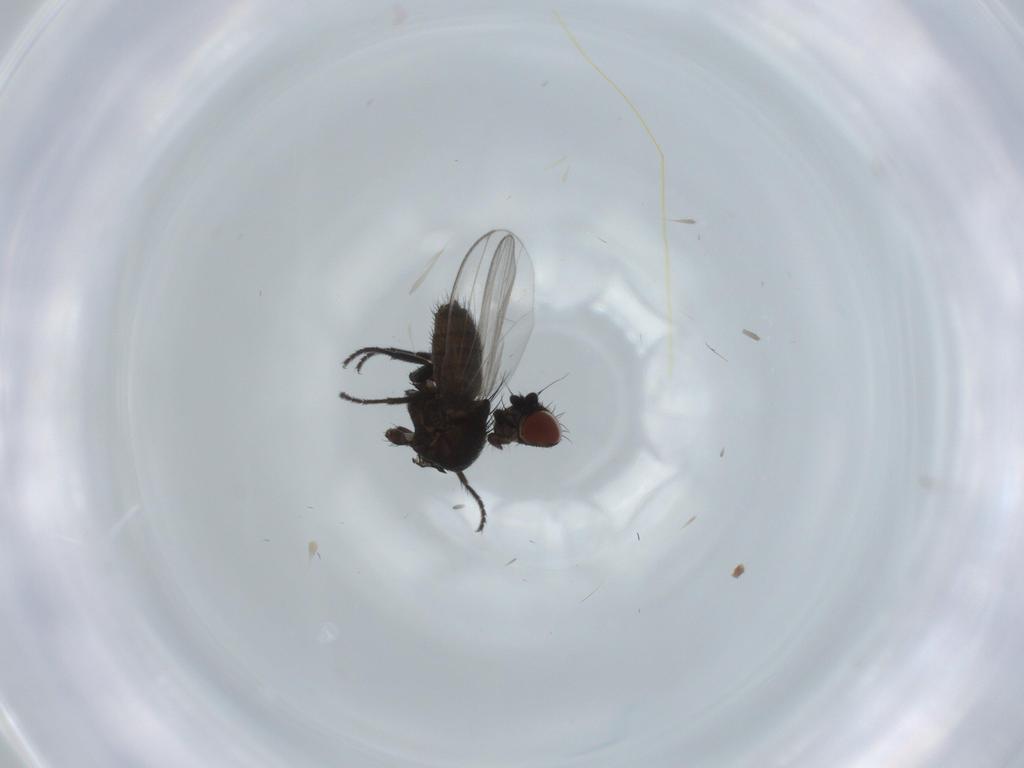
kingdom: Animalia
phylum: Arthropoda
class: Insecta
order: Diptera
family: Milichiidae
